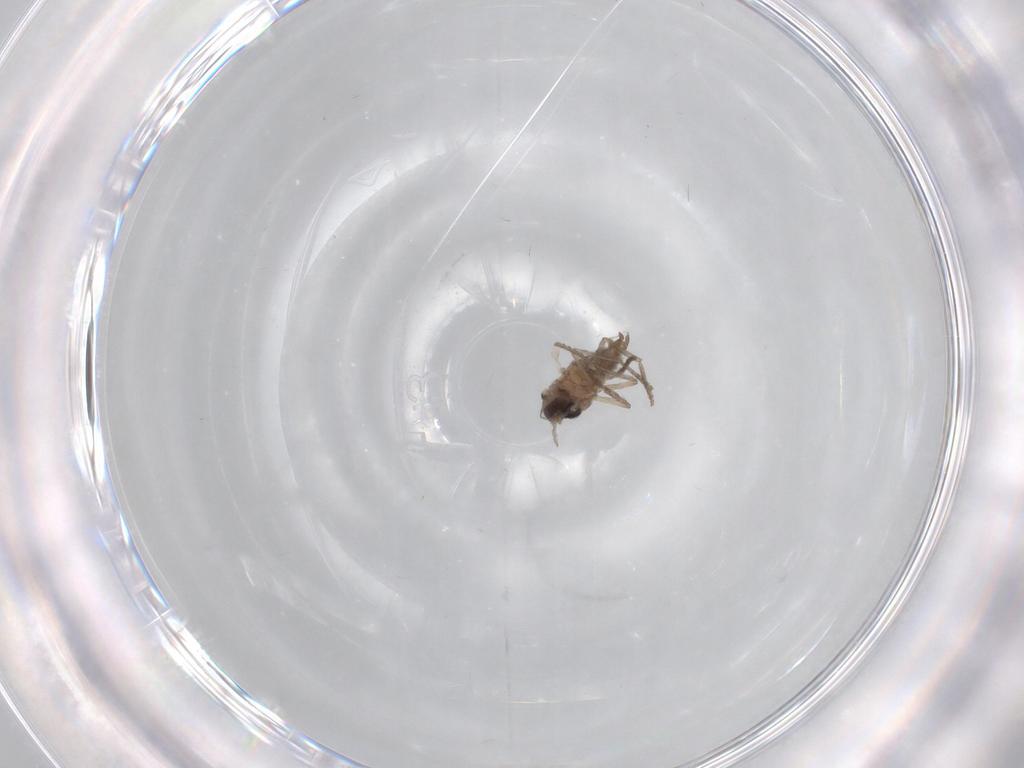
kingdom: Animalia
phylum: Arthropoda
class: Insecta
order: Diptera
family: Psychodidae
